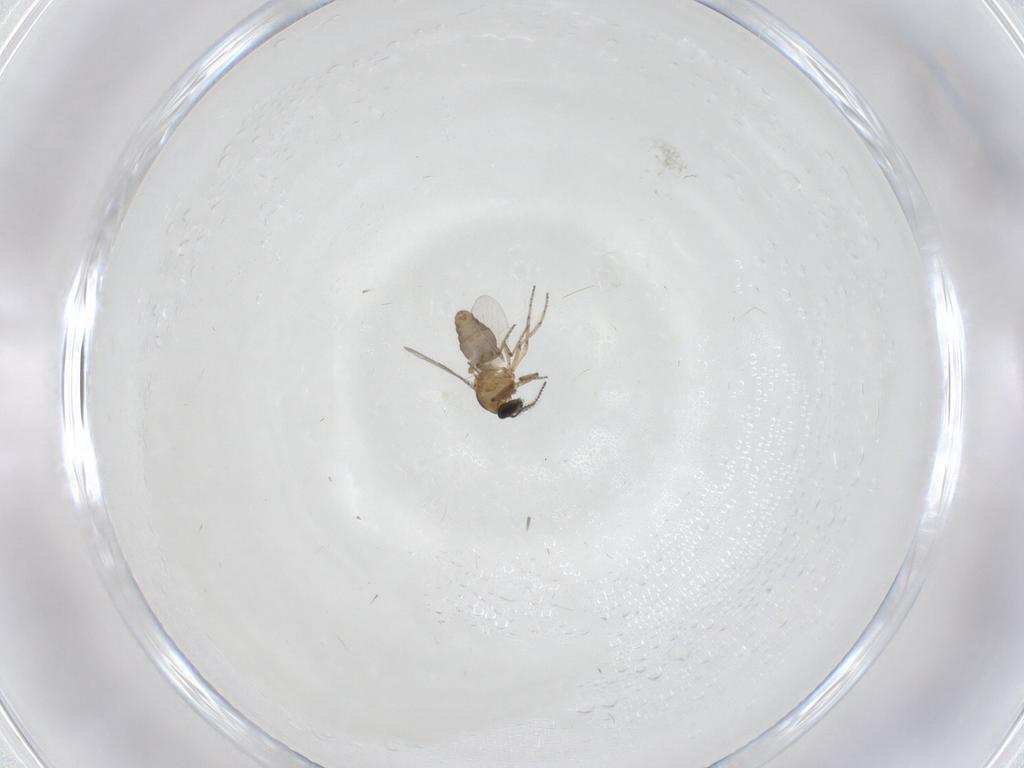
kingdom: Animalia
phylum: Arthropoda
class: Insecta
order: Diptera
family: Ceratopogonidae
